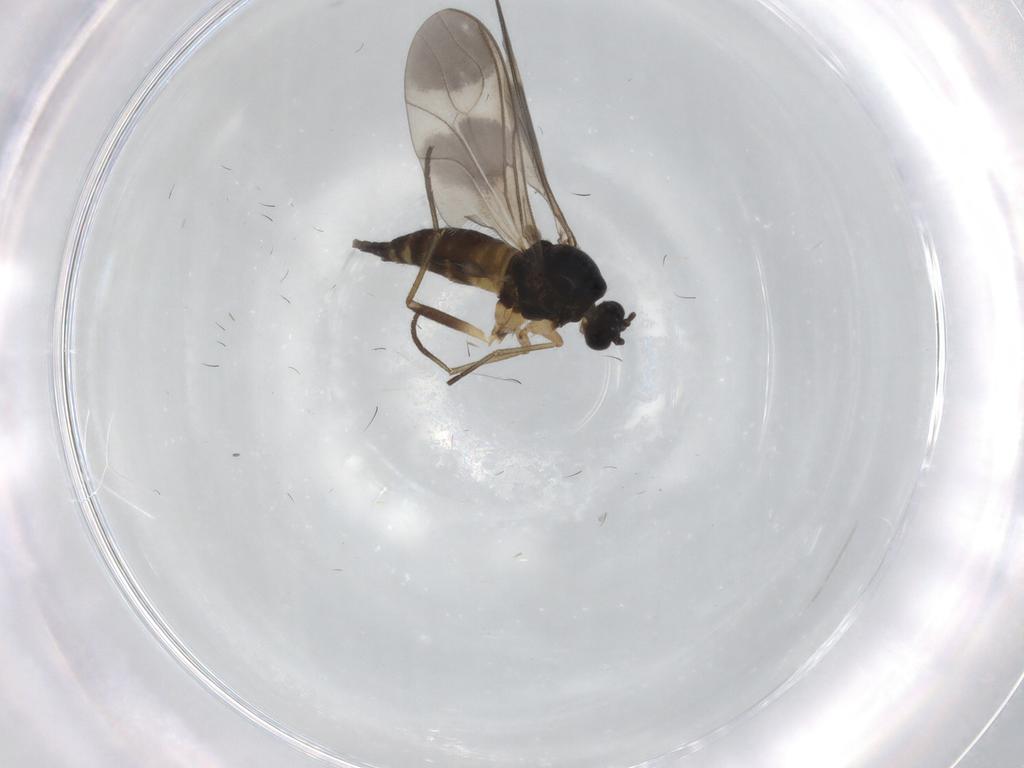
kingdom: Animalia
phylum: Arthropoda
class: Insecta
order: Diptera
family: Sciaridae
